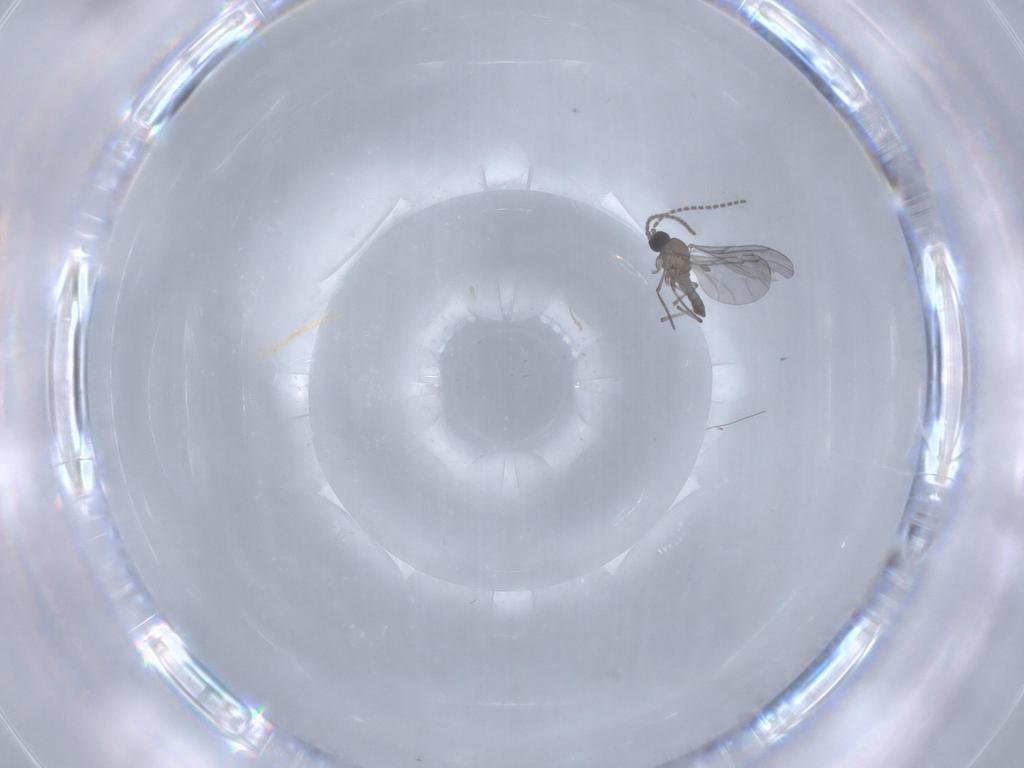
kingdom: Animalia
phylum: Arthropoda
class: Insecta
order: Diptera
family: Sciaridae
